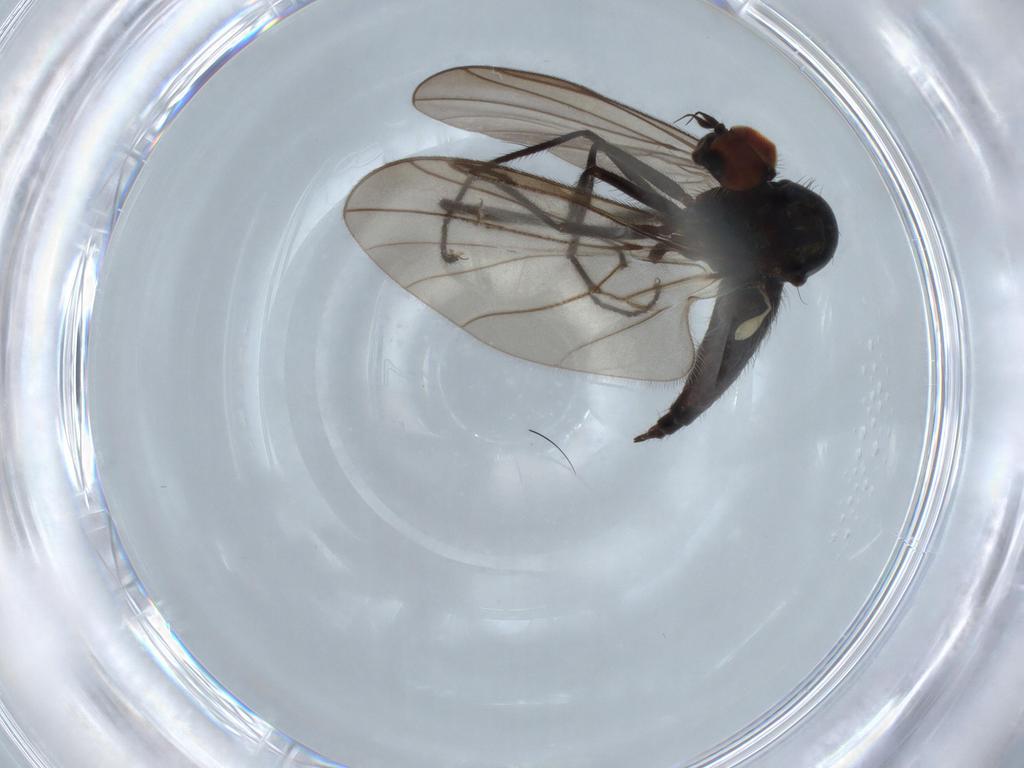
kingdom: Animalia
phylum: Arthropoda
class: Insecta
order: Diptera
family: Hybotidae
